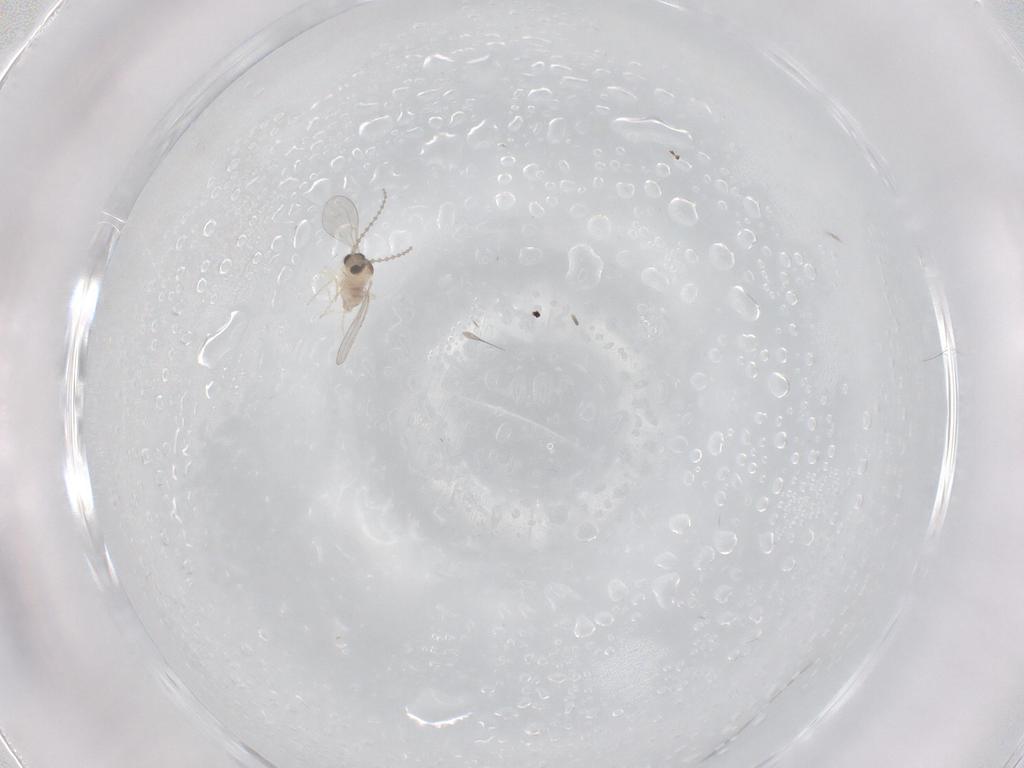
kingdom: Animalia
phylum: Arthropoda
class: Insecta
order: Diptera
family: Cecidomyiidae
